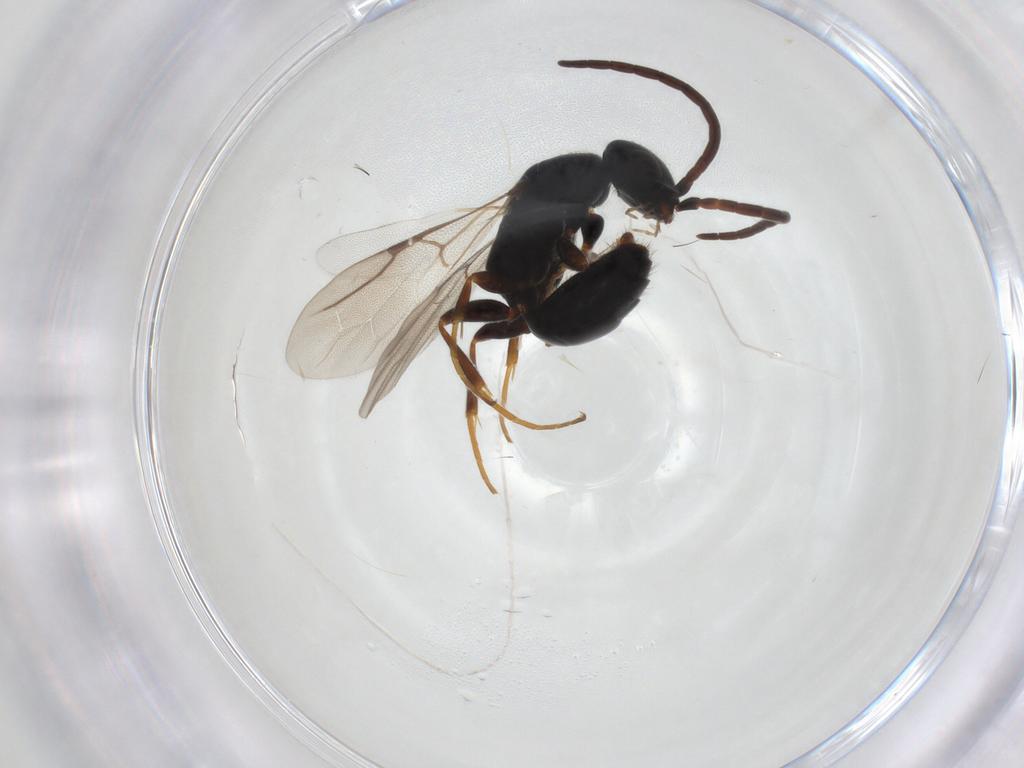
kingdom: Animalia
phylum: Arthropoda
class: Insecta
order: Hymenoptera
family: Bethylidae
